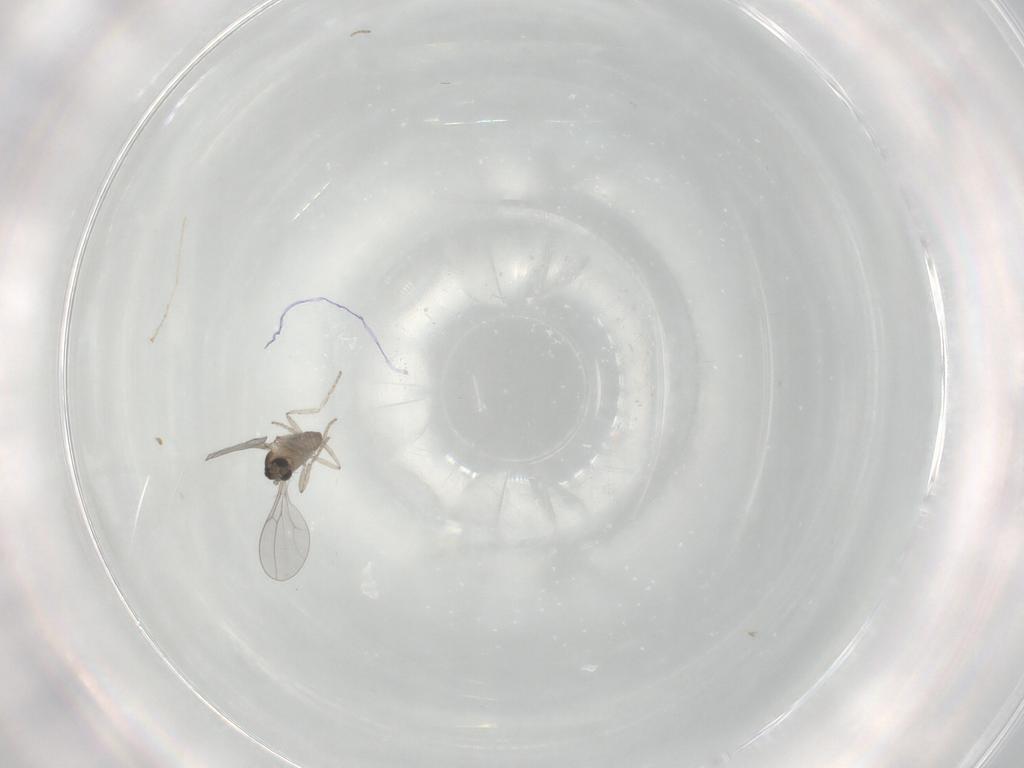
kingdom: Animalia
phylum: Arthropoda
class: Insecta
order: Diptera
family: Cecidomyiidae
